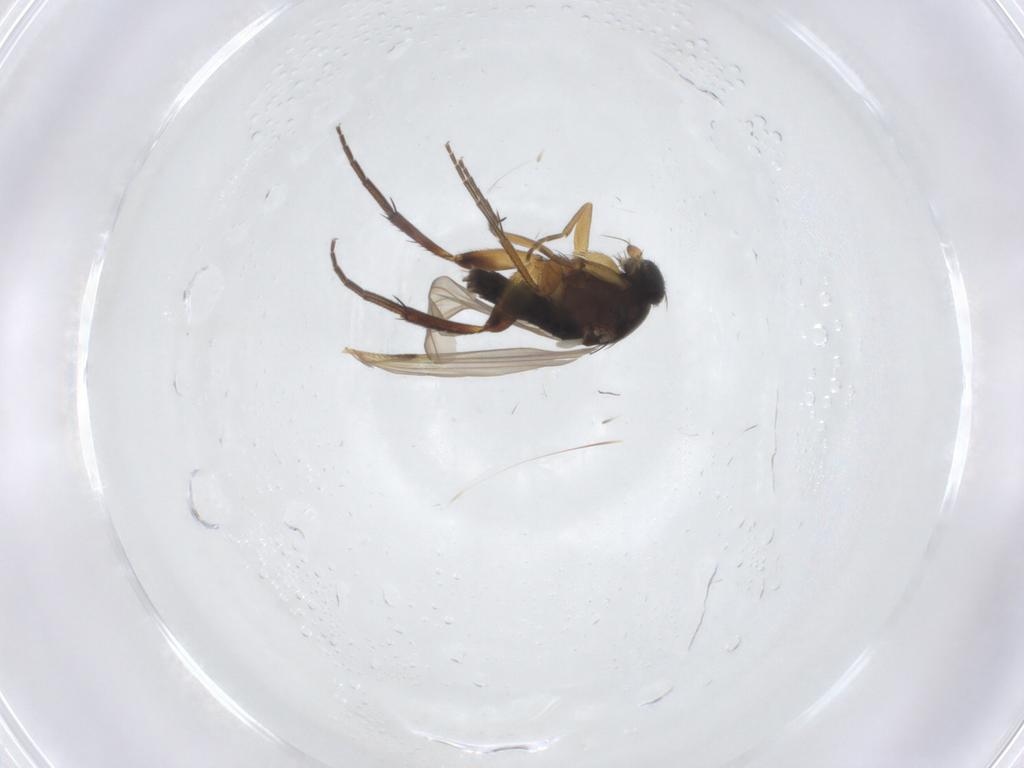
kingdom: Animalia
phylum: Arthropoda
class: Insecta
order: Diptera
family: Phoridae
